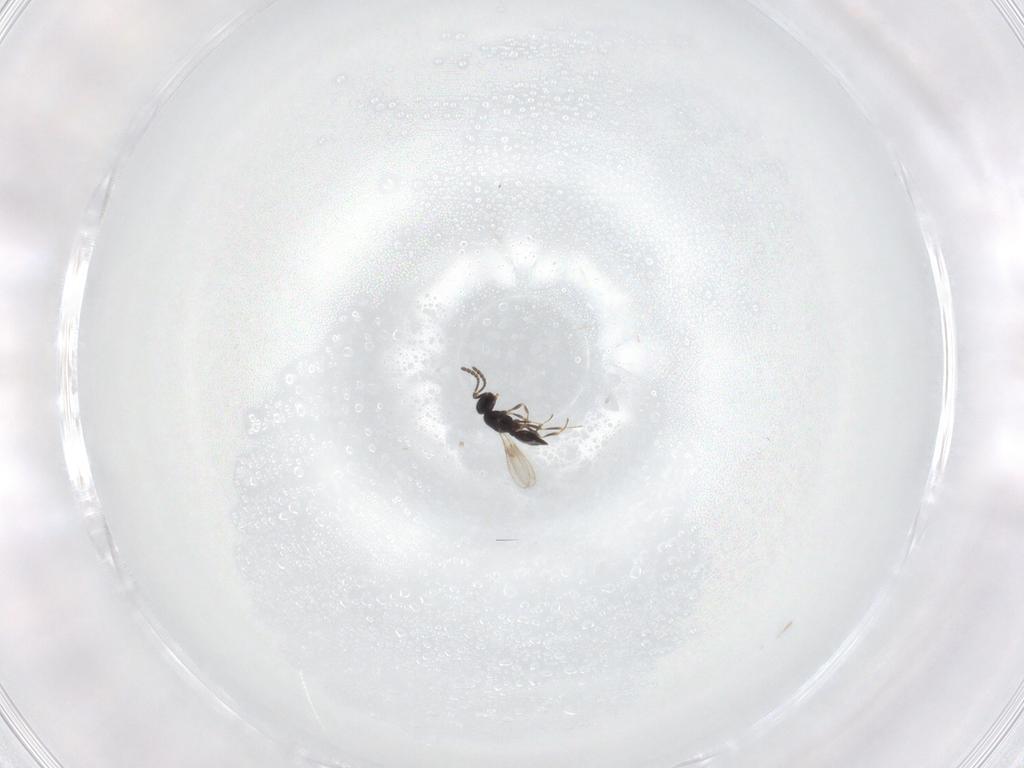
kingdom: Animalia
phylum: Arthropoda
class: Insecta
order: Hymenoptera
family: Scelionidae
